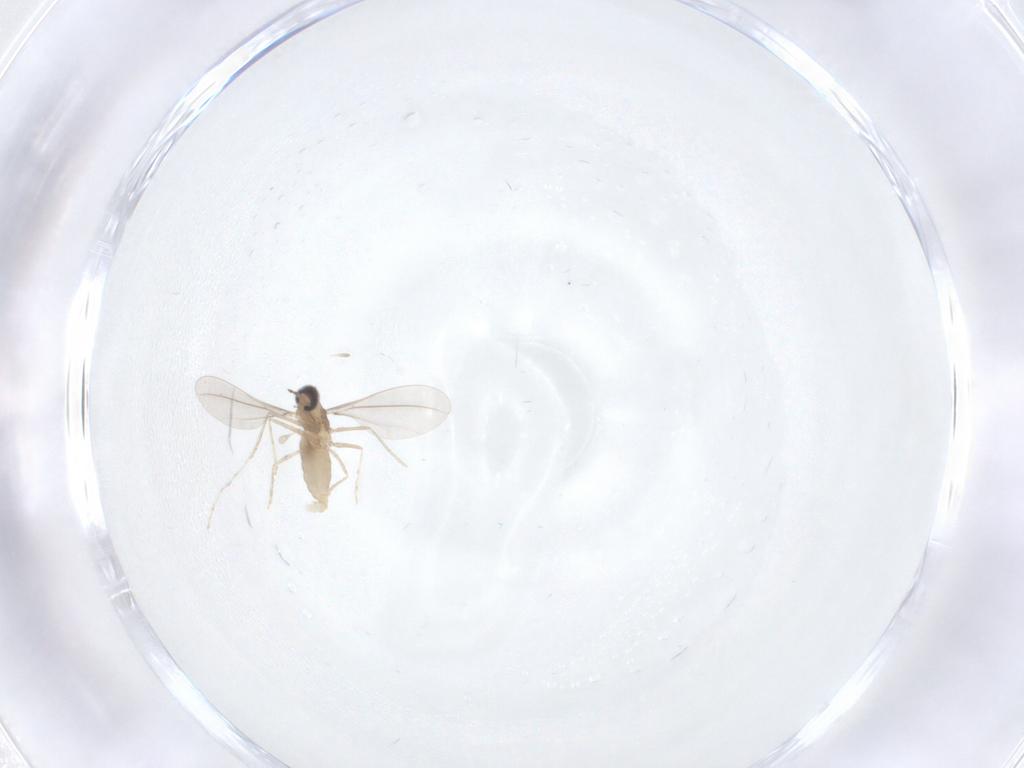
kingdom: Animalia
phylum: Arthropoda
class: Insecta
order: Diptera
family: Cecidomyiidae
